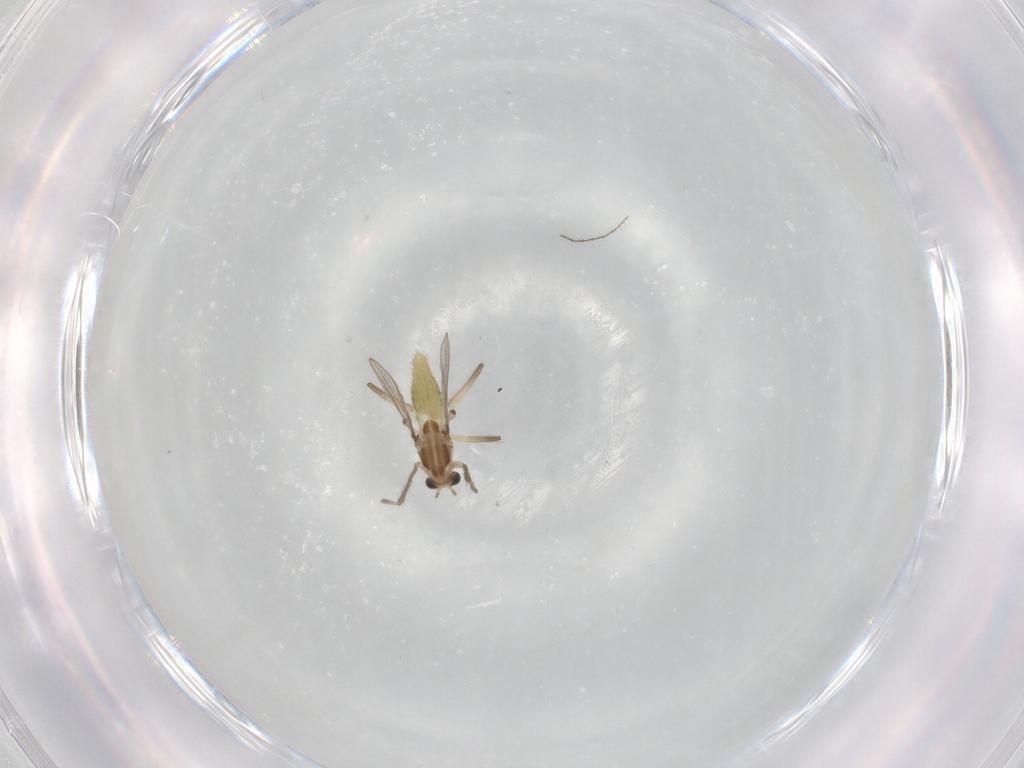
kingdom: Animalia
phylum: Arthropoda
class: Insecta
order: Diptera
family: Chironomidae
